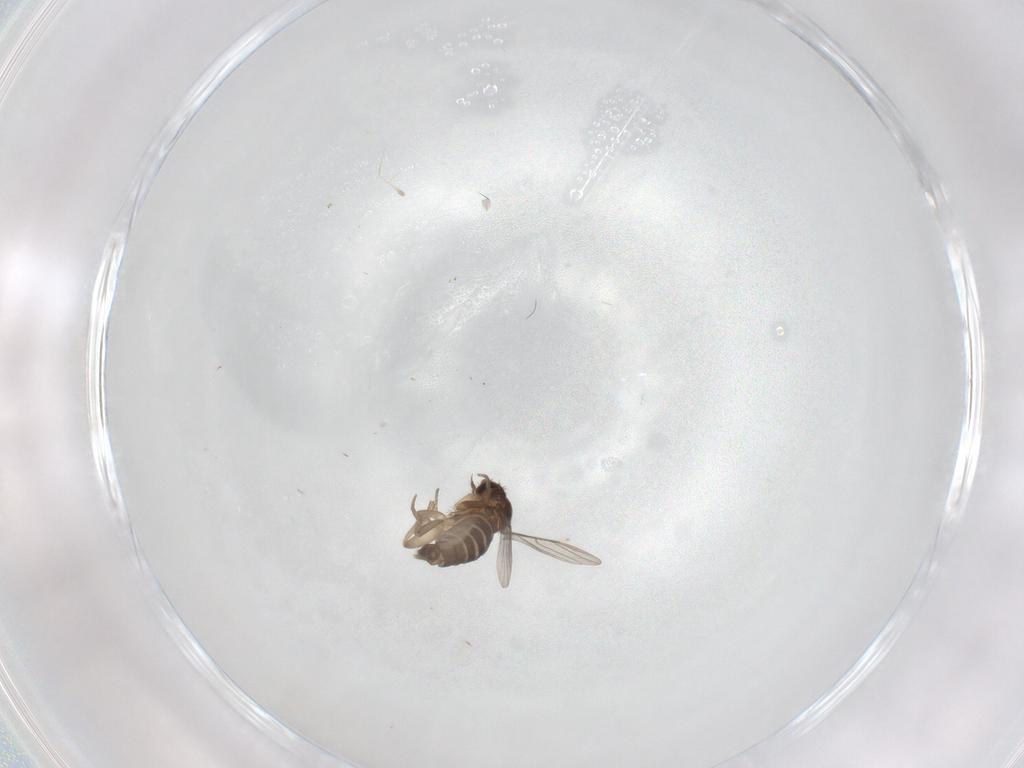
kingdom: Animalia
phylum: Arthropoda
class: Insecta
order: Diptera
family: Phoridae
